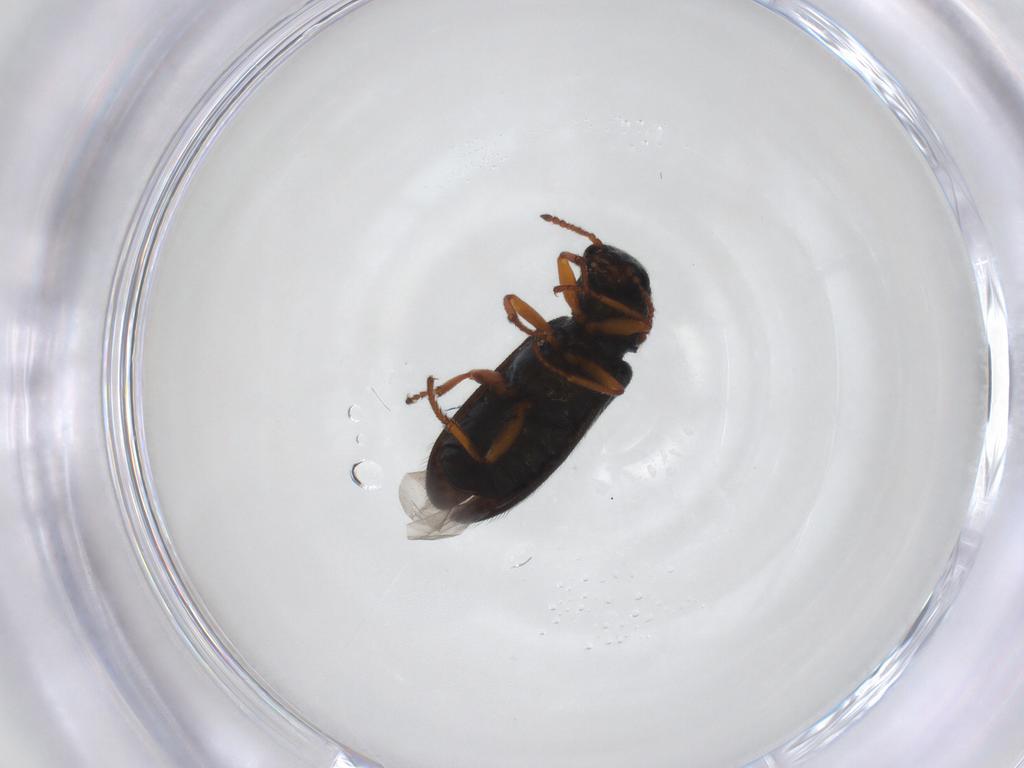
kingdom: Animalia
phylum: Arthropoda
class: Insecta
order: Coleoptera
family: Melyridae
